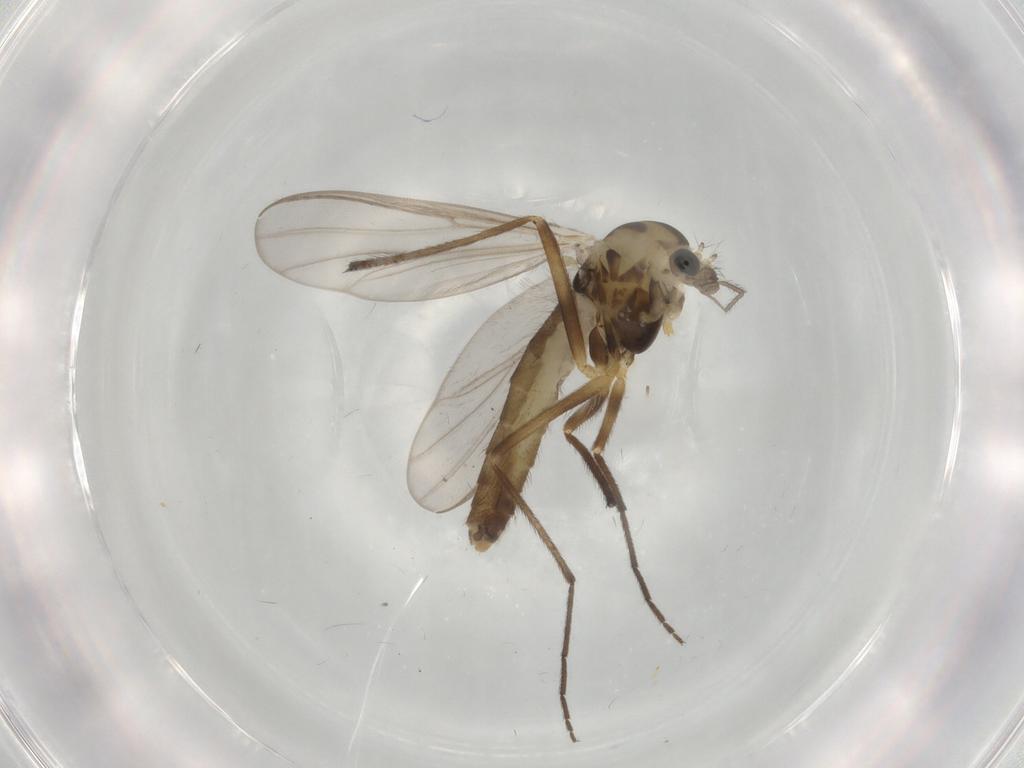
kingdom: Animalia
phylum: Arthropoda
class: Insecta
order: Diptera
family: Chironomidae
